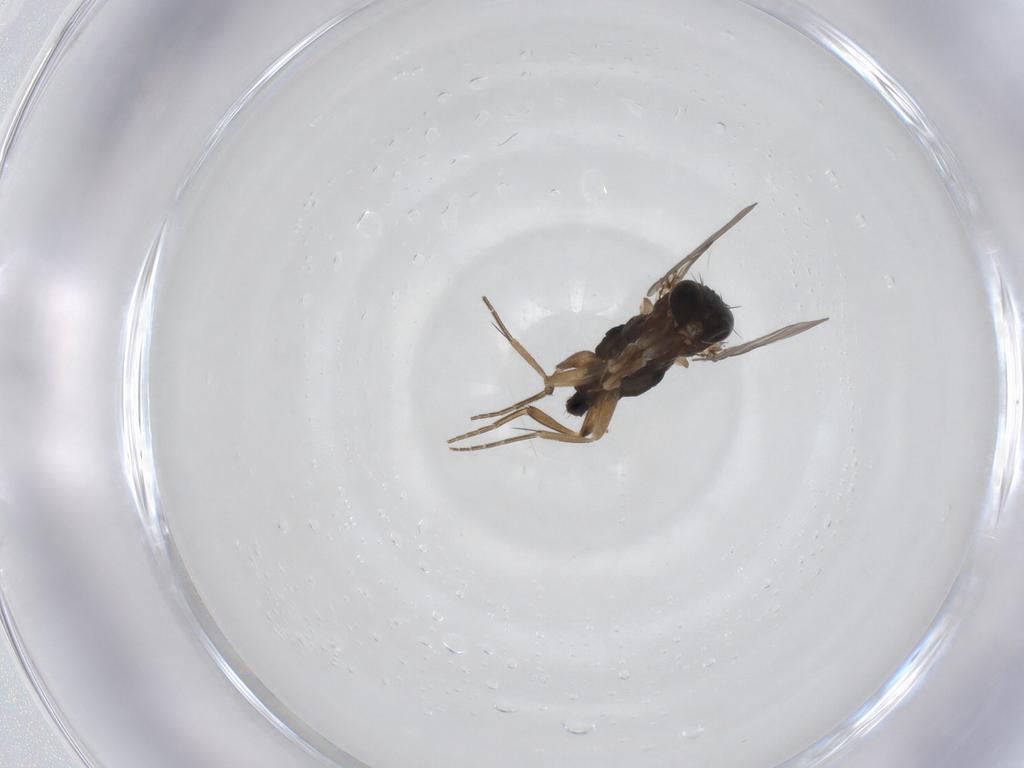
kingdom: Animalia
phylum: Arthropoda
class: Insecta
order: Diptera
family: Phoridae
